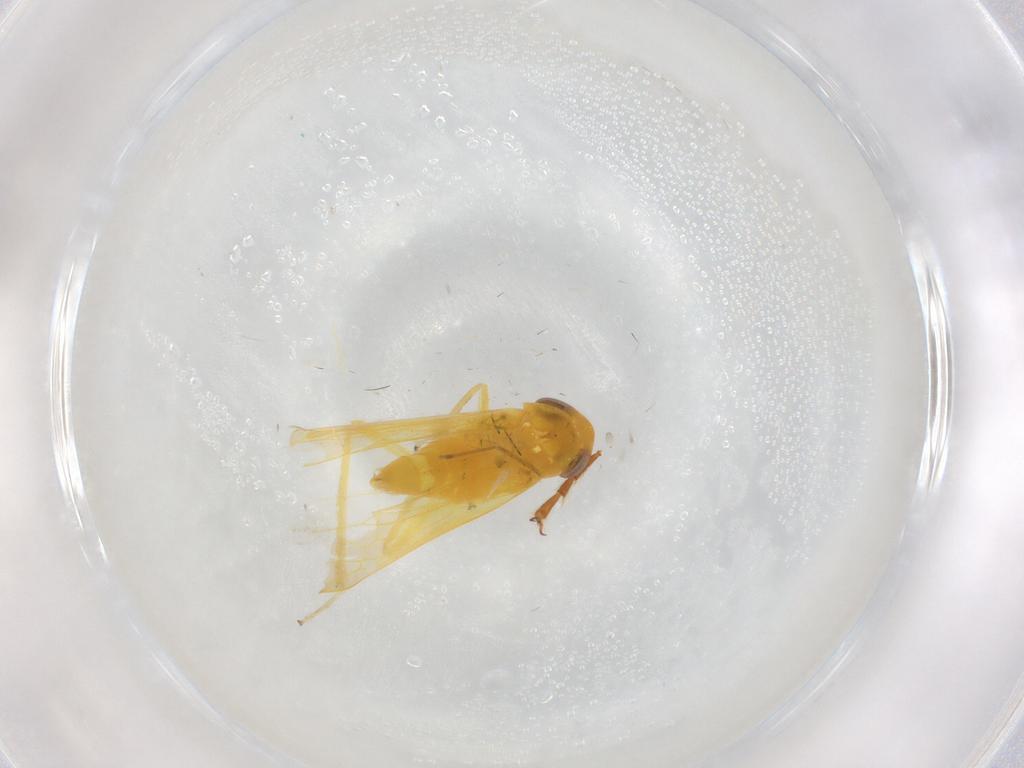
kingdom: Animalia
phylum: Arthropoda
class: Insecta
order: Hemiptera
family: Cicadellidae
